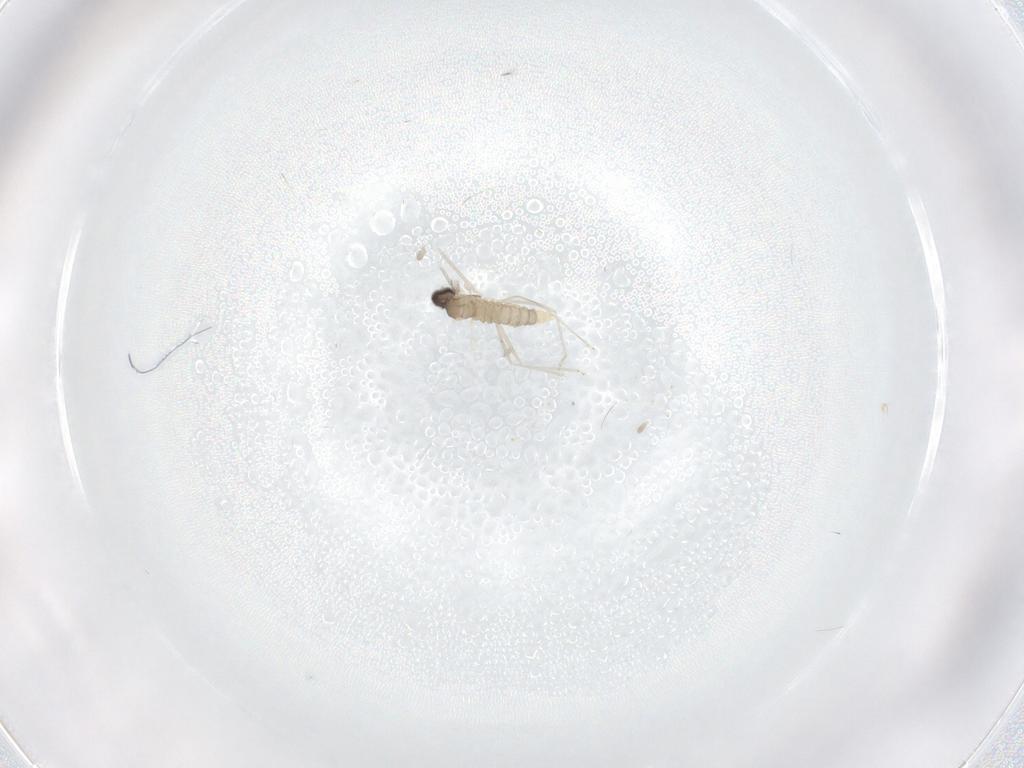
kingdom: Animalia
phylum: Arthropoda
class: Insecta
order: Diptera
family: Cecidomyiidae
